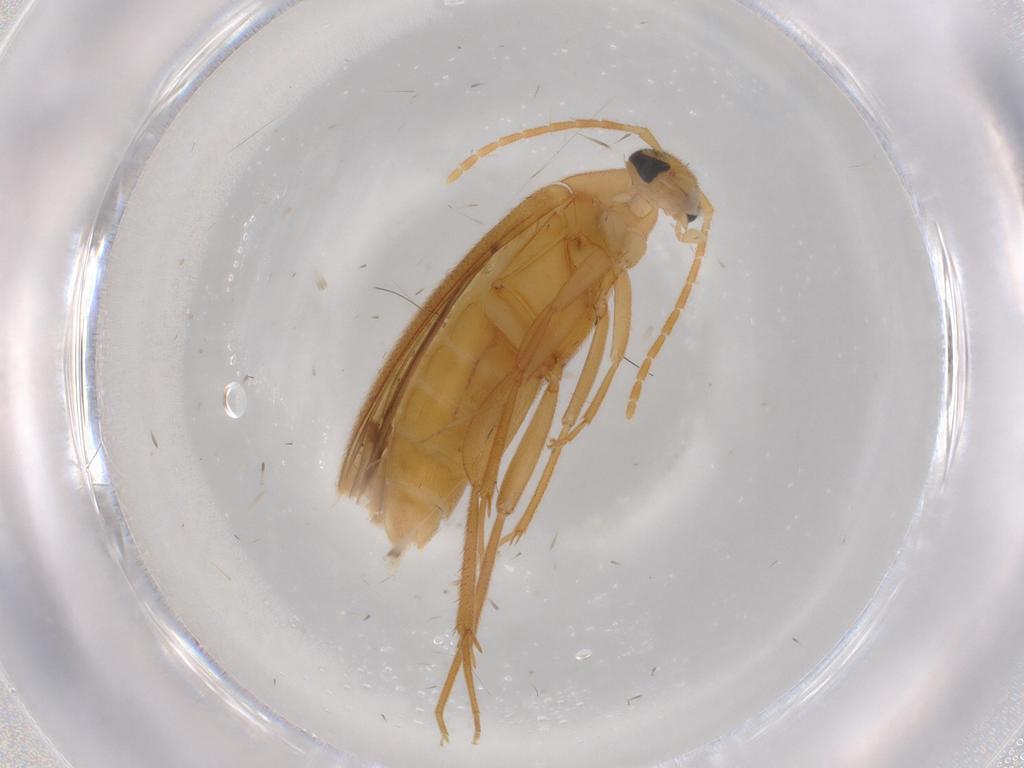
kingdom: Animalia
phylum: Arthropoda
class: Insecta
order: Coleoptera
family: Scraptiidae
